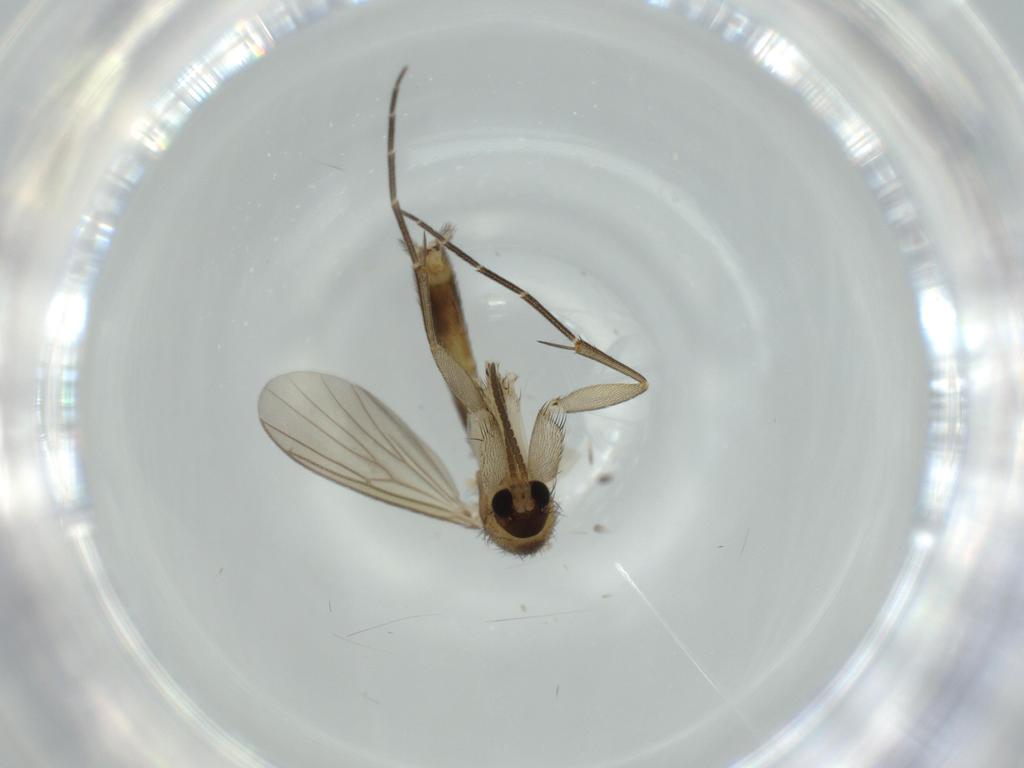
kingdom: Animalia
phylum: Arthropoda
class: Insecta
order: Diptera
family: Mycetophilidae
